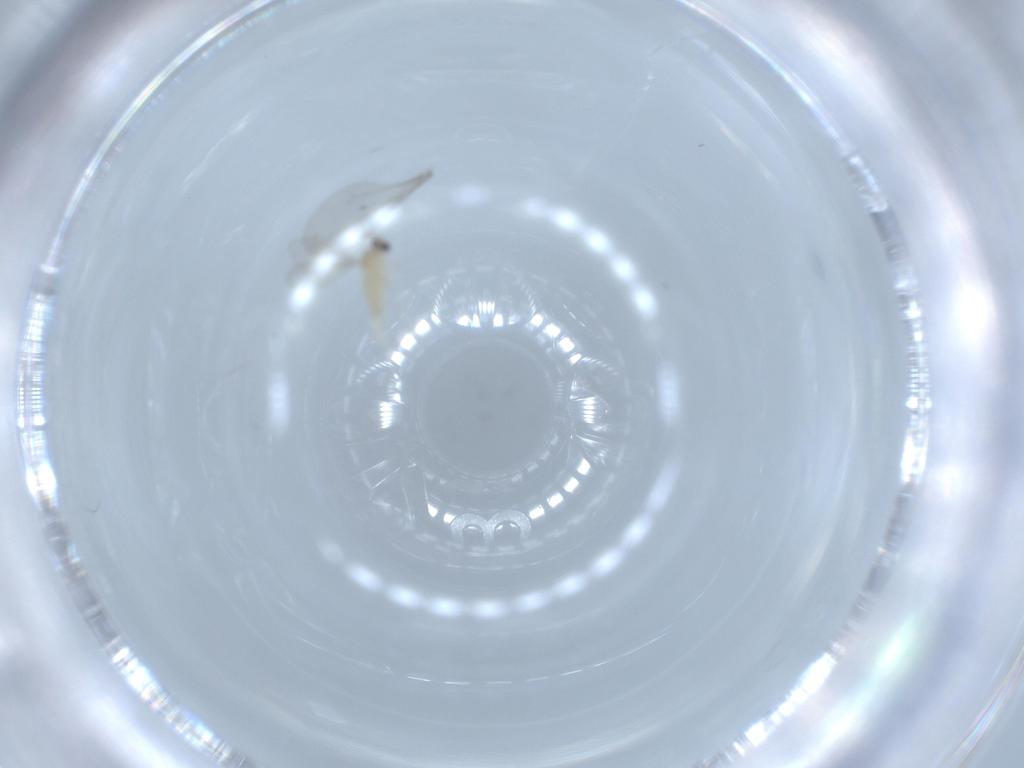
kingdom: Animalia
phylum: Arthropoda
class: Insecta
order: Diptera
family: Cecidomyiidae
